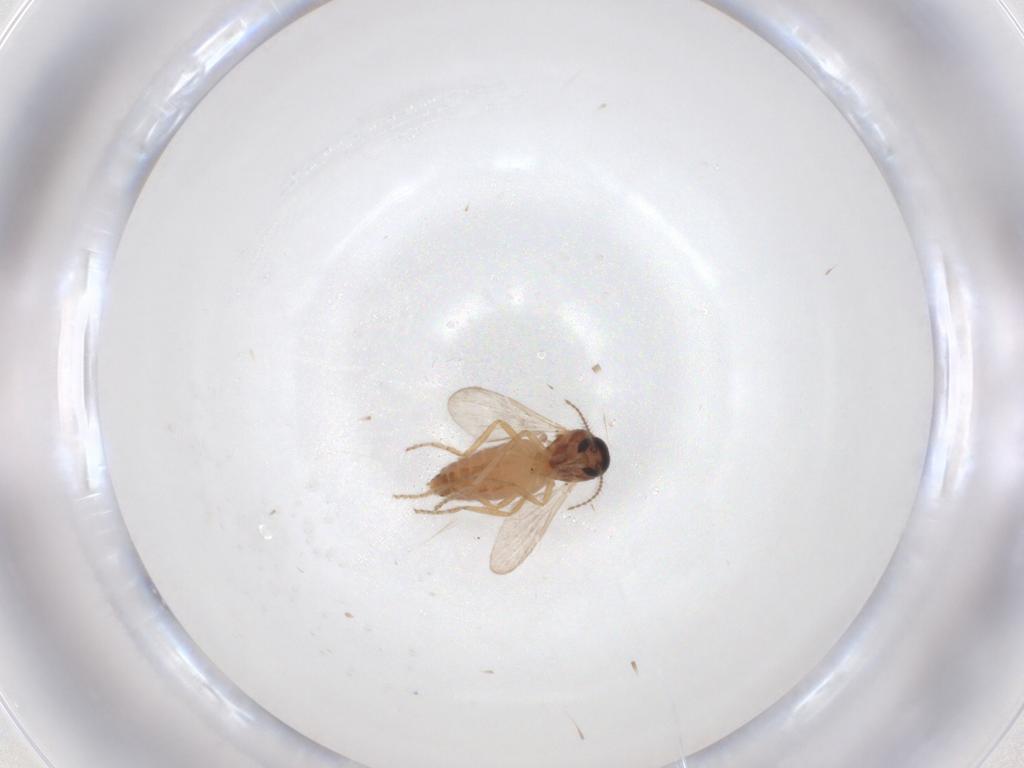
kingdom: Animalia
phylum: Arthropoda
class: Insecta
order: Diptera
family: Ceratopogonidae
